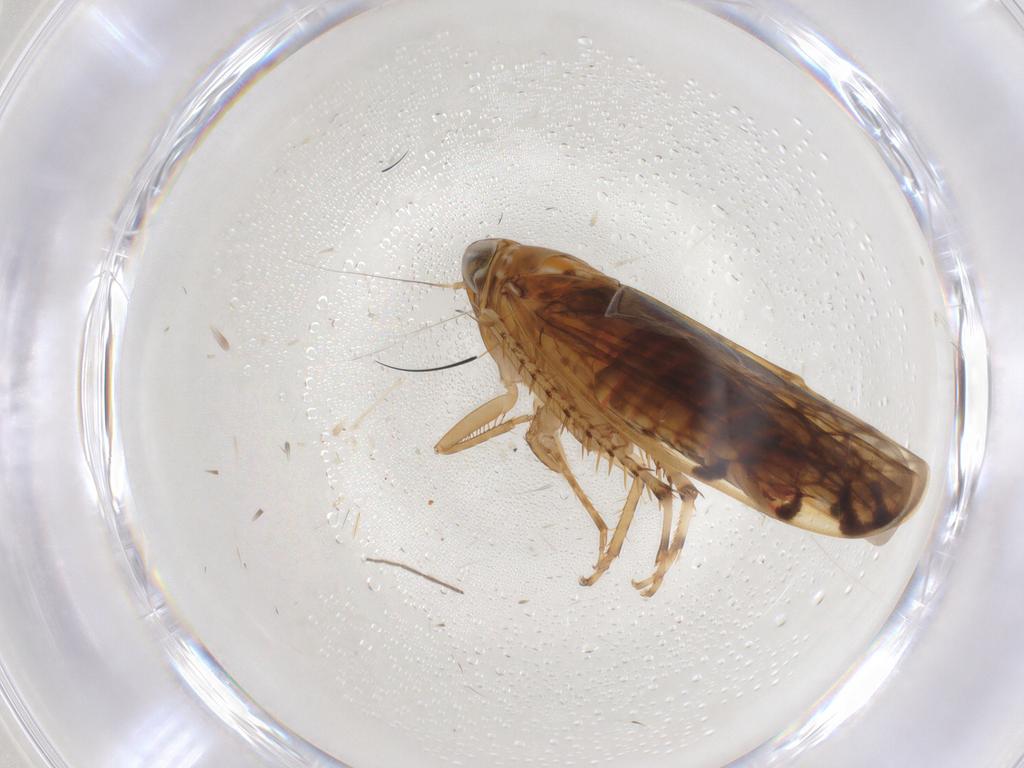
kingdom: Animalia
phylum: Arthropoda
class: Insecta
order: Hemiptera
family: Cicadellidae
